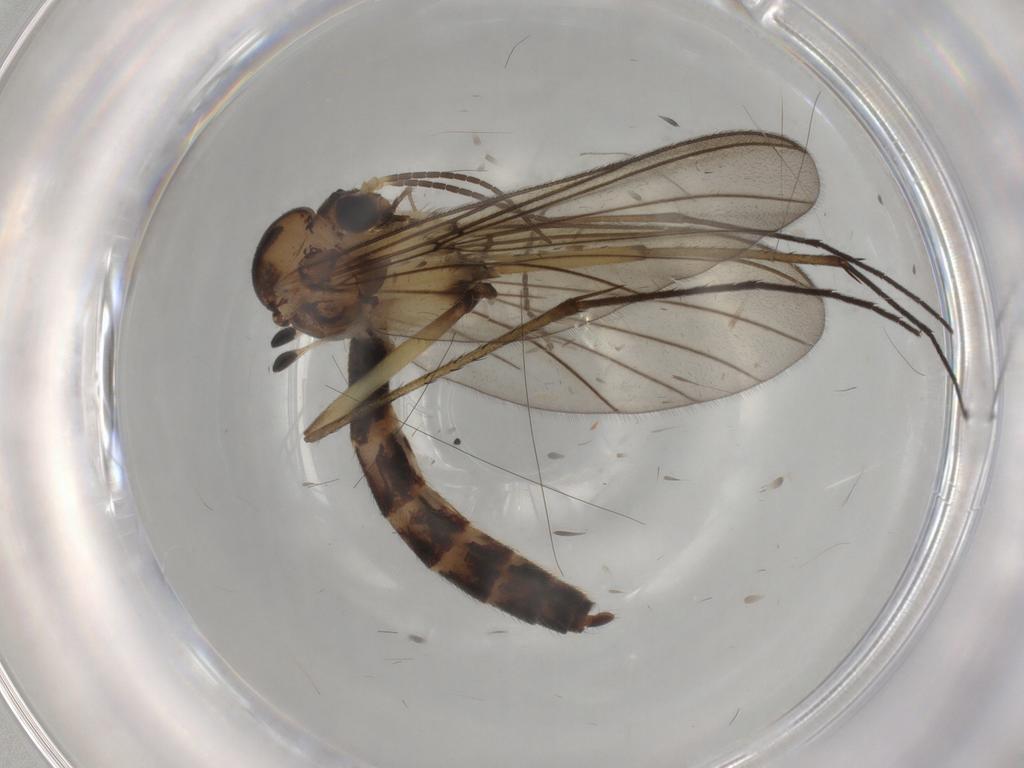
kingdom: Animalia
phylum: Arthropoda
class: Insecta
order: Diptera
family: Mycetophilidae
